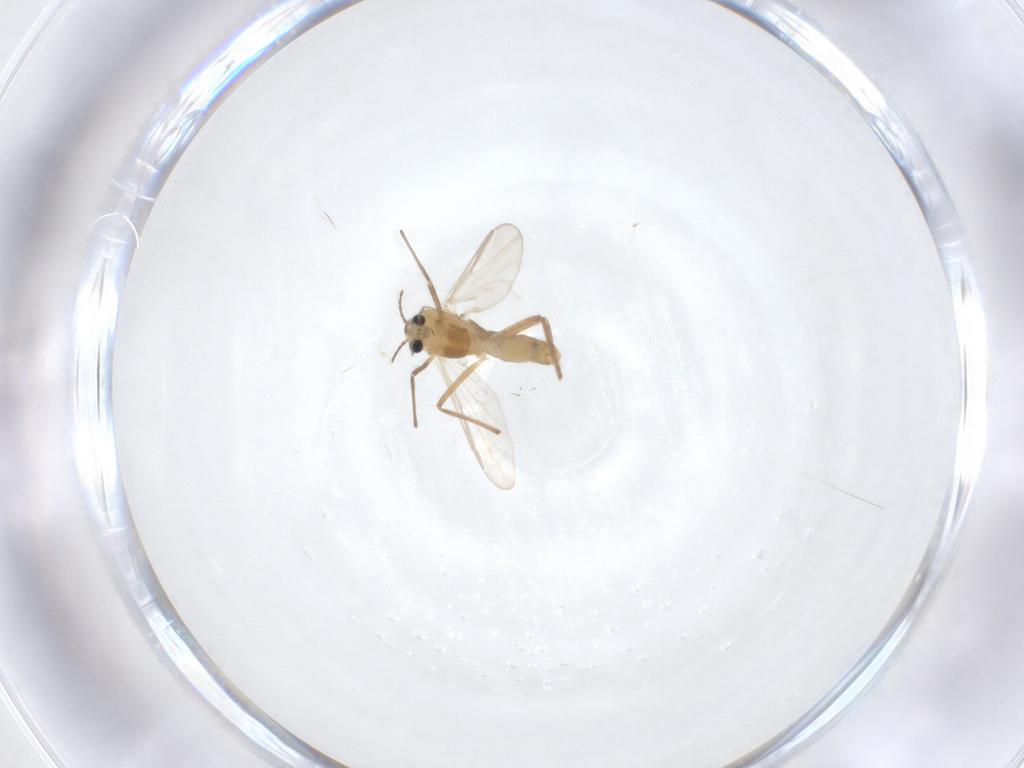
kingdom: Animalia
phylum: Arthropoda
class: Insecta
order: Diptera
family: Chironomidae
